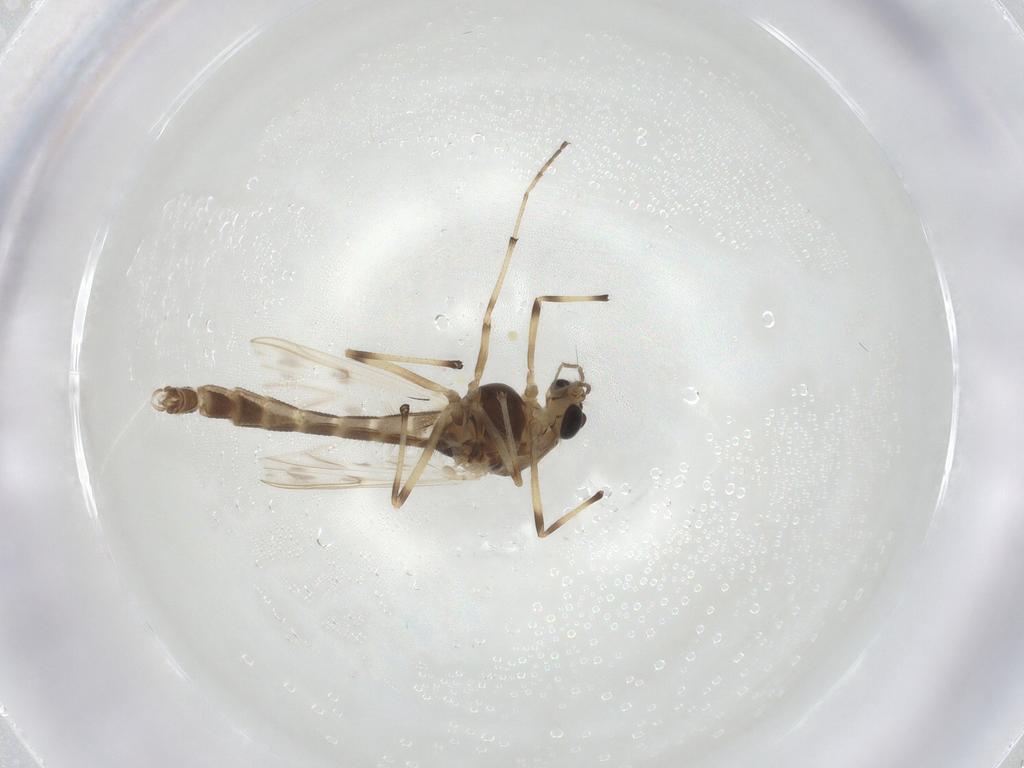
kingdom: Animalia
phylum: Arthropoda
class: Insecta
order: Diptera
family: Chironomidae
